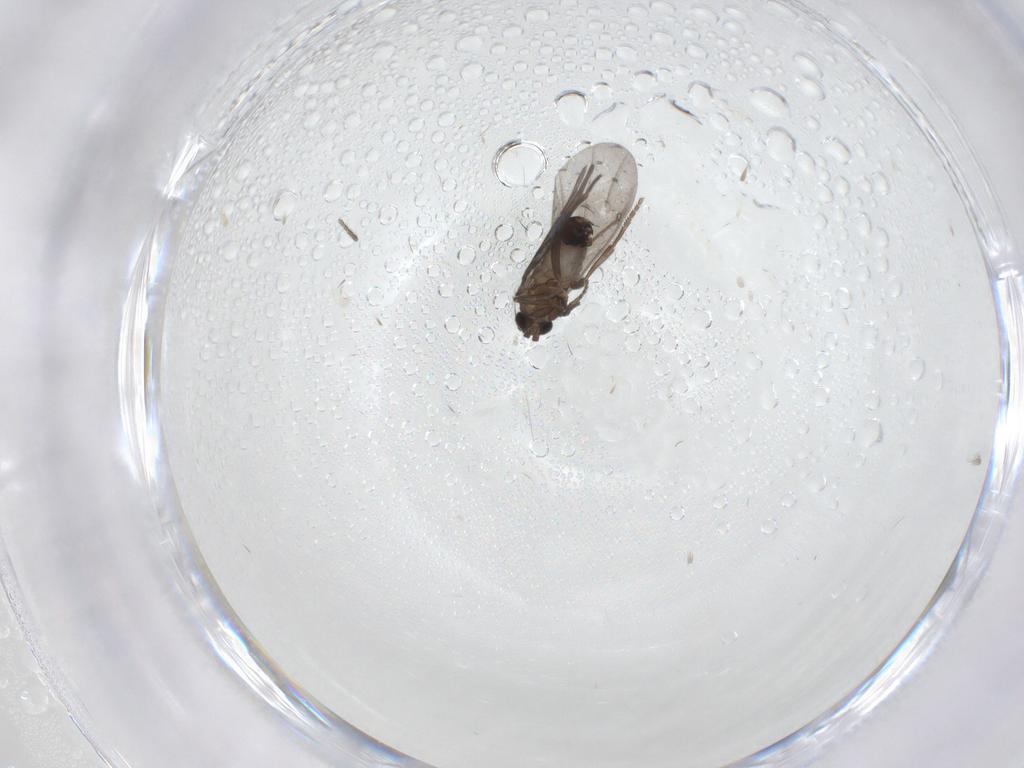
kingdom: Animalia
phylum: Arthropoda
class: Insecta
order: Diptera
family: Phoridae
